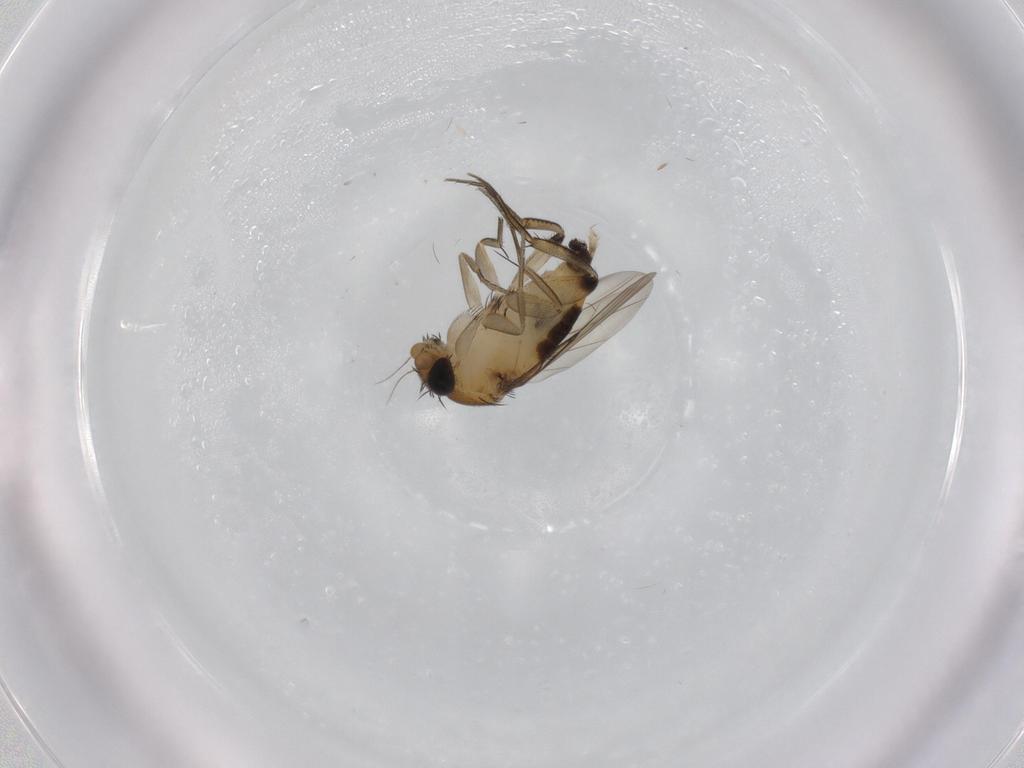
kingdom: Animalia
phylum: Arthropoda
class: Insecta
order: Diptera
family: Phoridae
